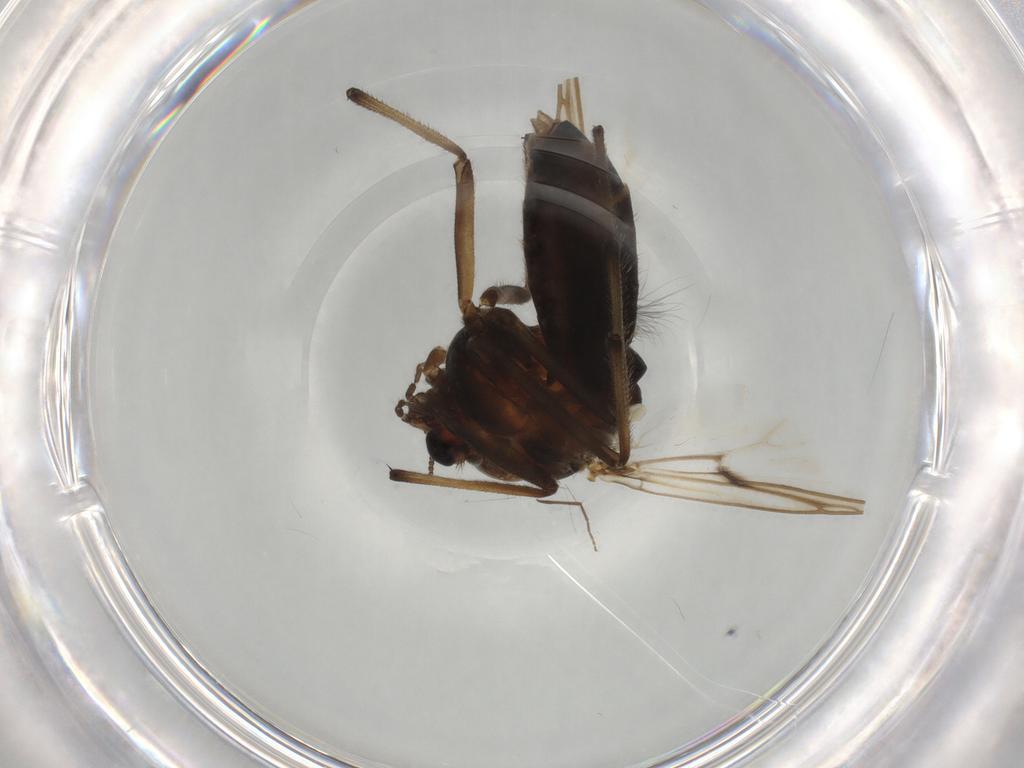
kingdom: Animalia
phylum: Arthropoda
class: Insecta
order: Diptera
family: Chironomidae
